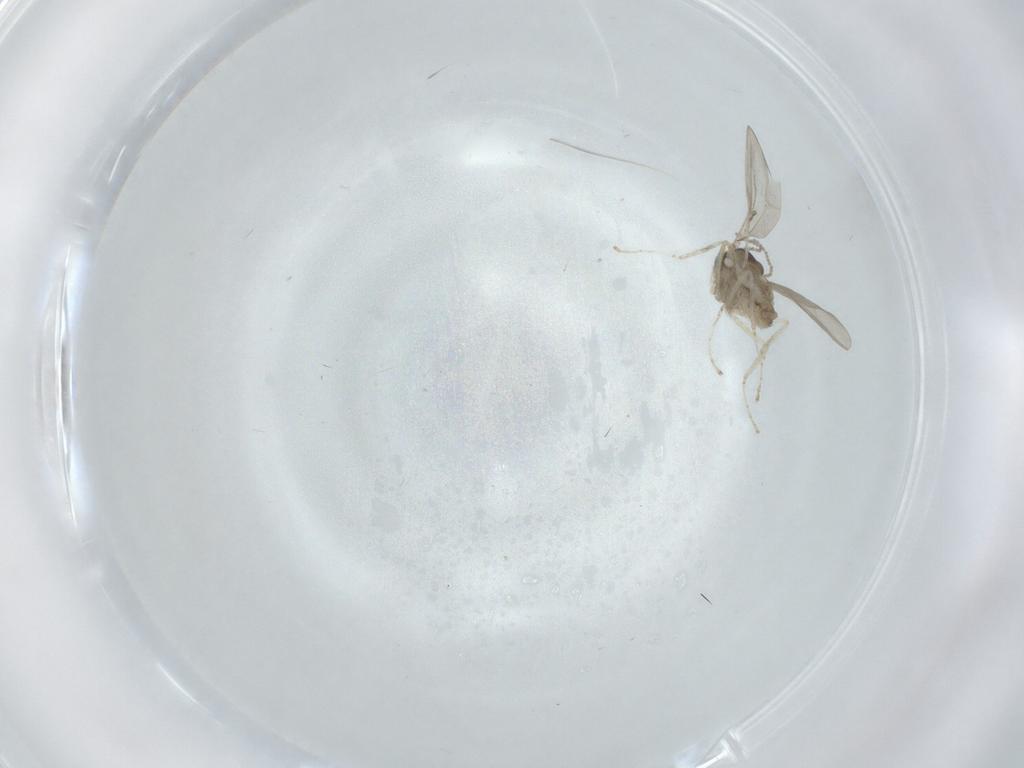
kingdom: Animalia
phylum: Arthropoda
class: Insecta
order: Diptera
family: Cecidomyiidae
